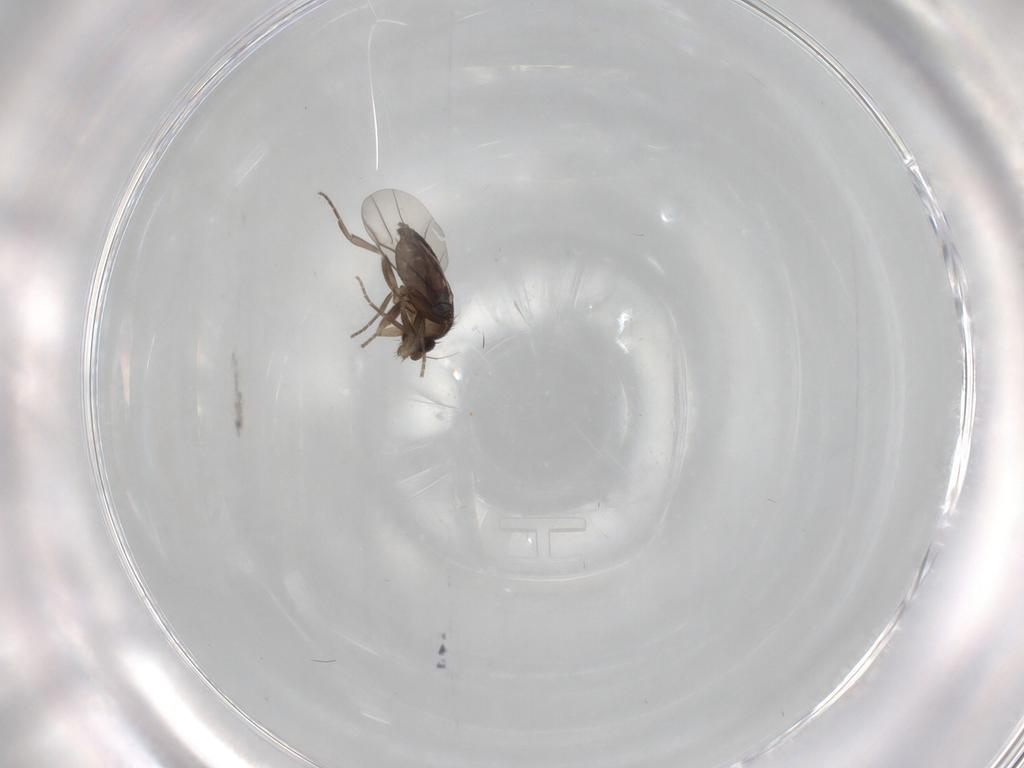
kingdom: Animalia
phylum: Arthropoda
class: Insecta
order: Diptera
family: Phoridae
